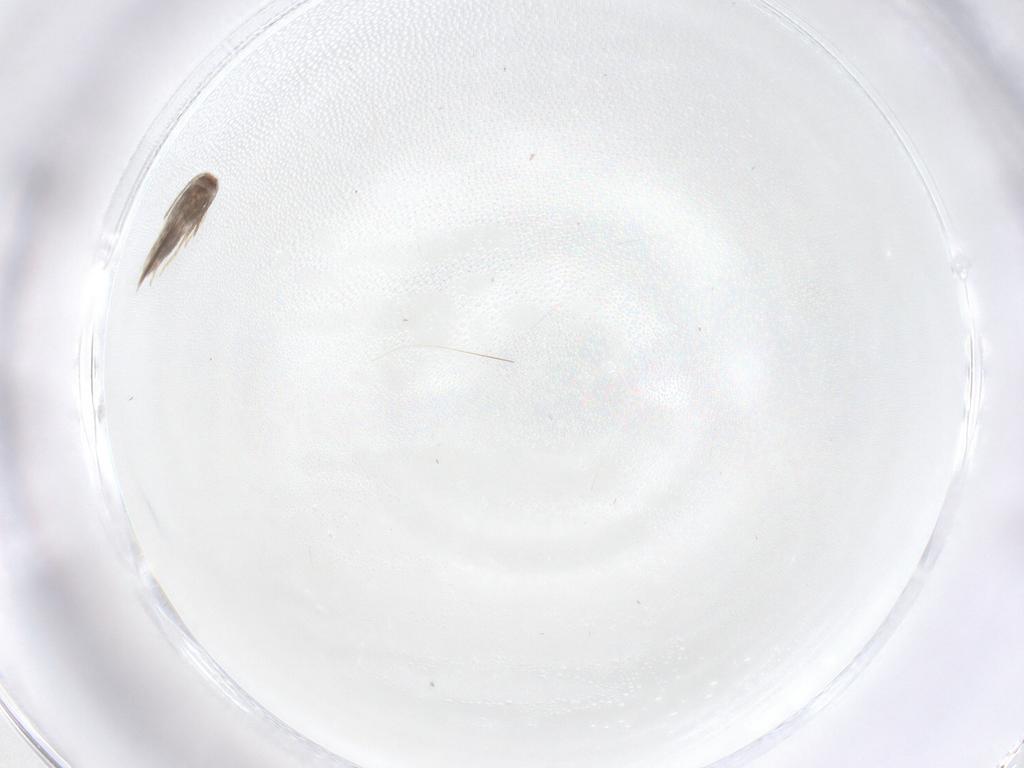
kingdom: Animalia
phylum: Arthropoda
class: Insecta
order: Lepidoptera
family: Nepticulidae
